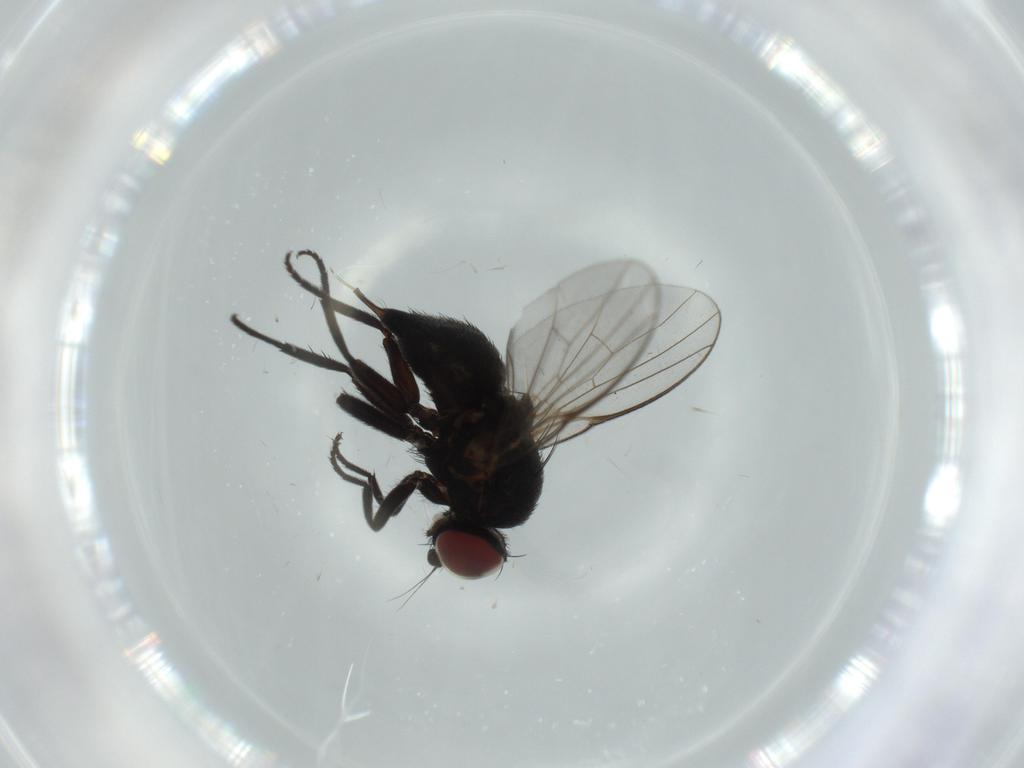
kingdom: Animalia
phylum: Arthropoda
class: Insecta
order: Diptera
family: Agromyzidae
